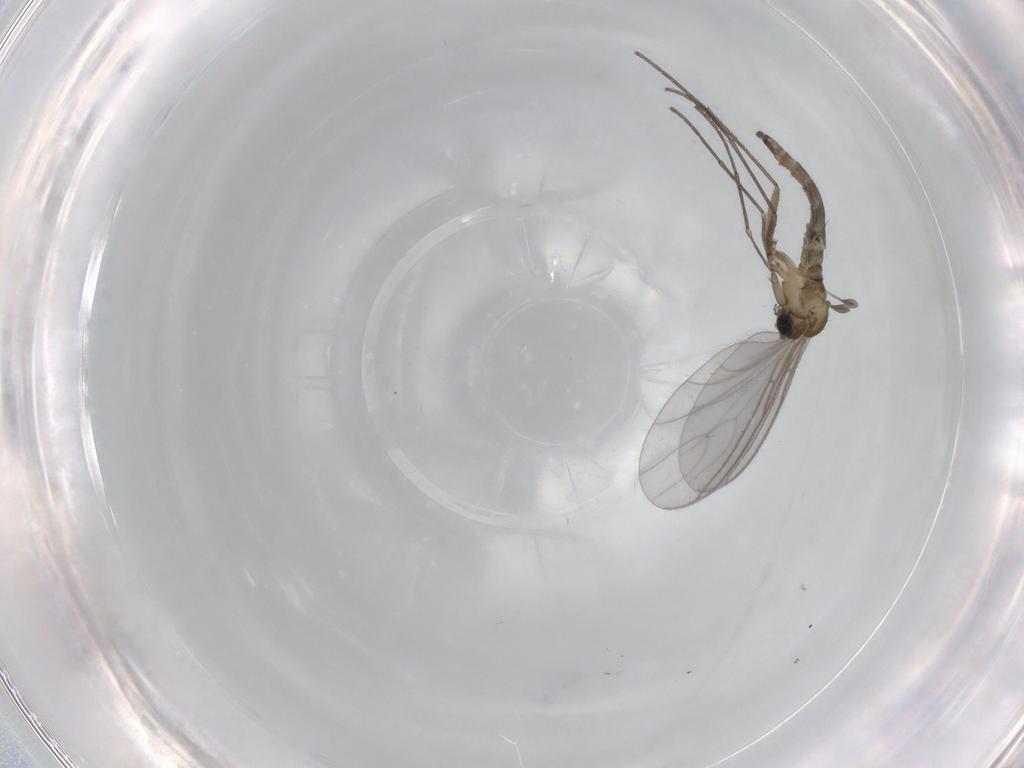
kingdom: Animalia
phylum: Arthropoda
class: Insecta
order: Diptera
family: Sciaridae
